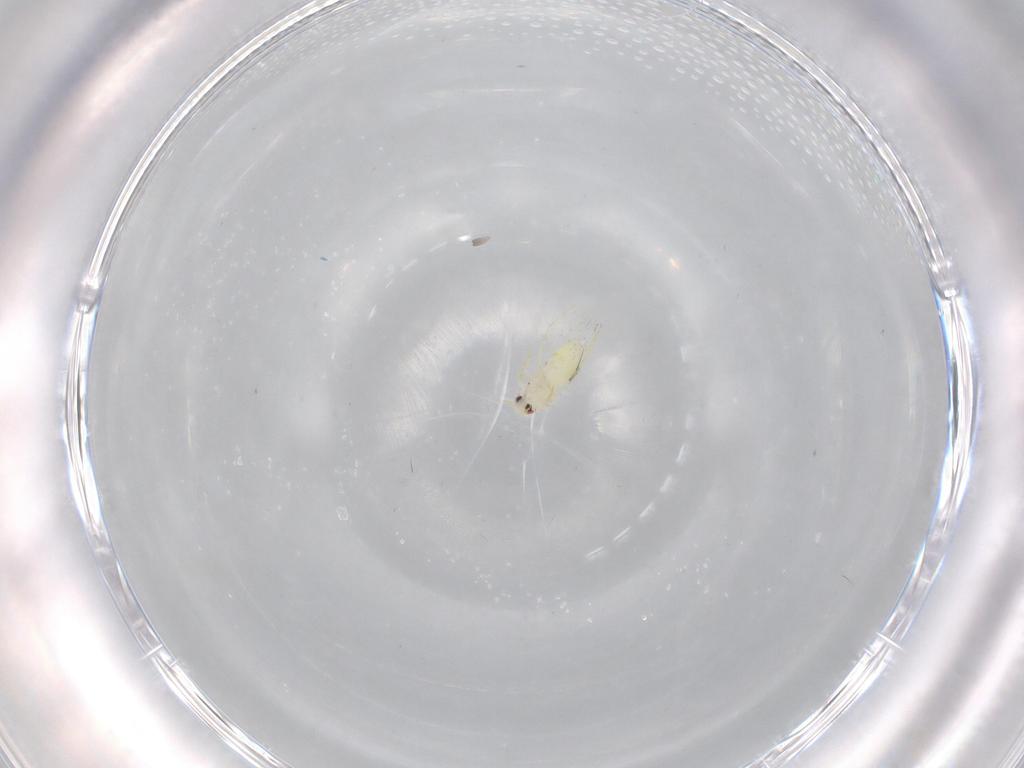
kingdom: Animalia
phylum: Arthropoda
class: Insecta
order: Hemiptera
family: Aleyrodidae
